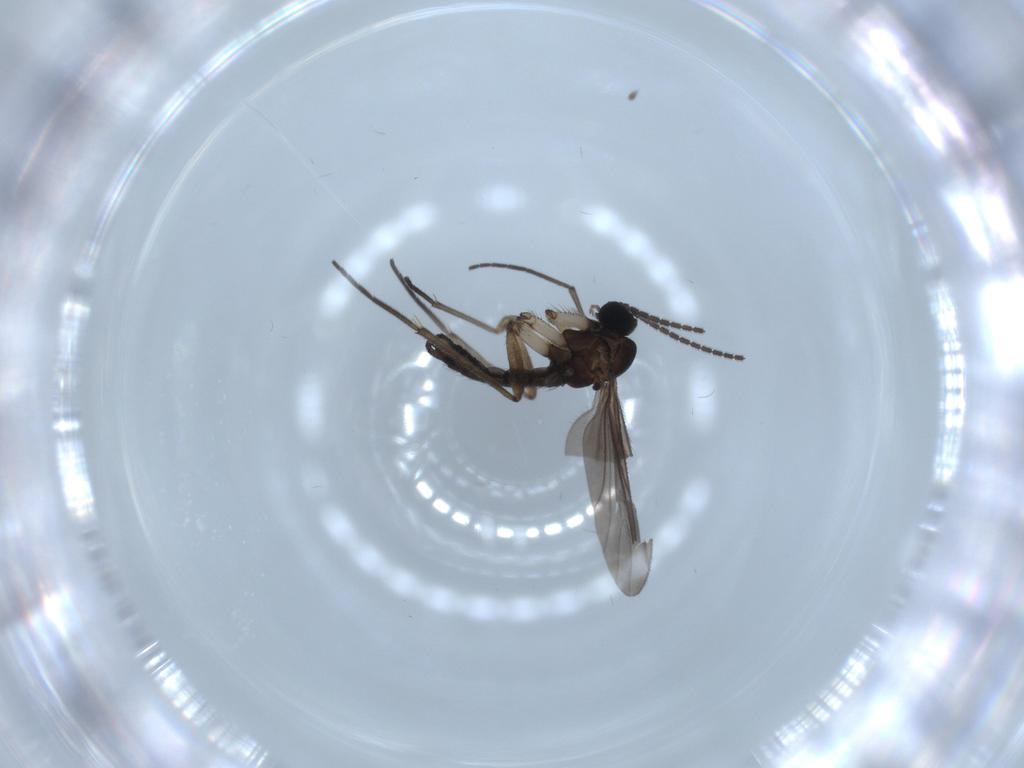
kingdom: Animalia
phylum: Arthropoda
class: Insecta
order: Diptera
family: Sciaridae
